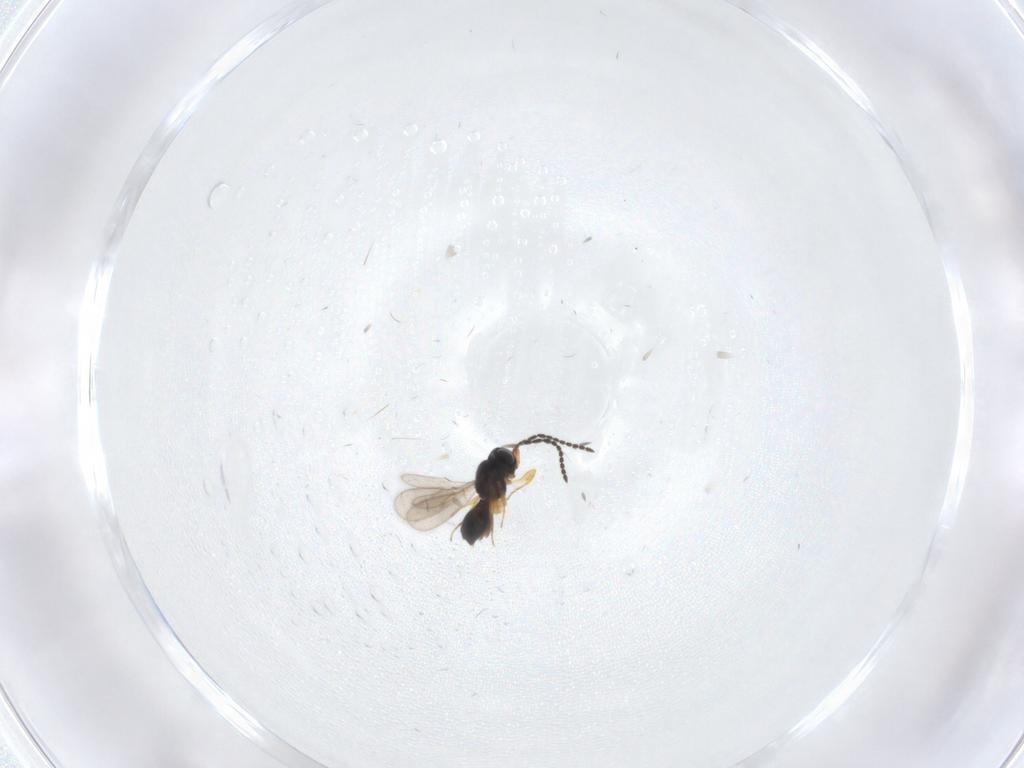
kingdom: Animalia
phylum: Arthropoda
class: Insecta
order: Hymenoptera
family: Scelionidae
